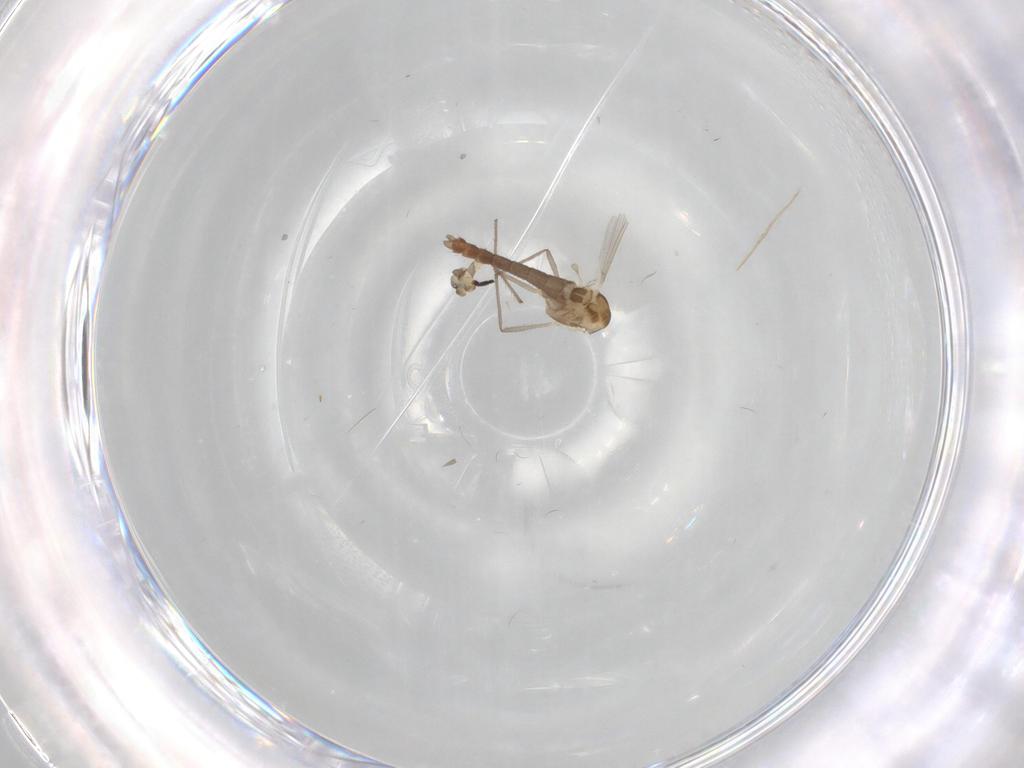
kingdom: Animalia
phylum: Arthropoda
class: Insecta
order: Diptera
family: Chironomidae
